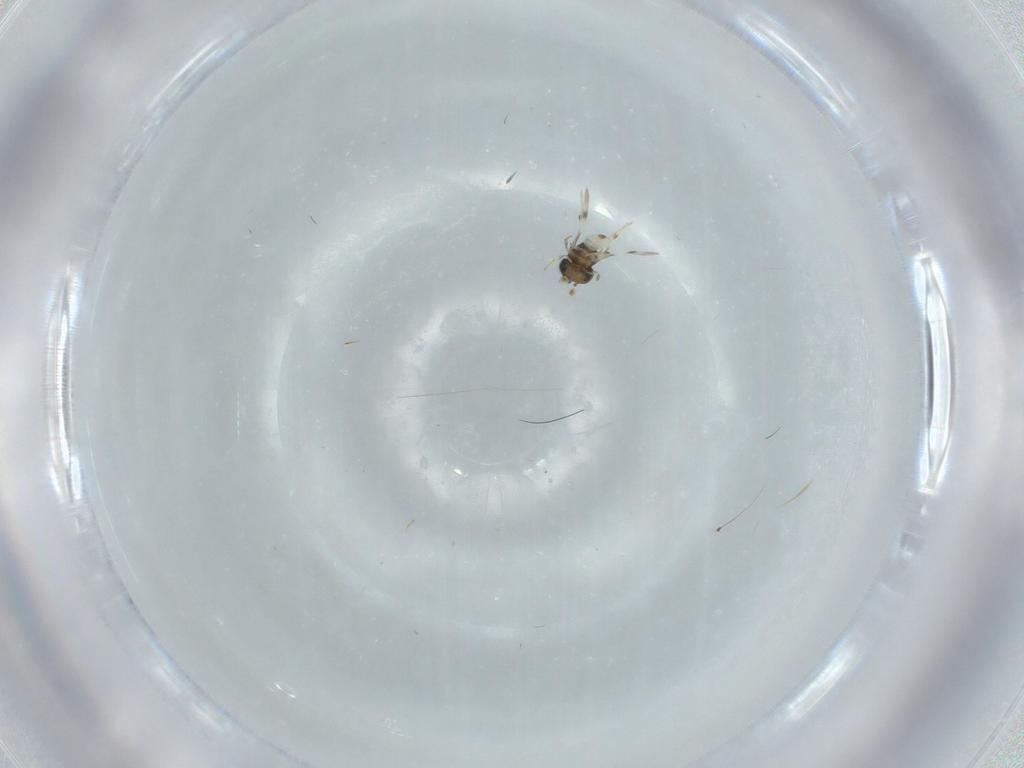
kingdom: Animalia
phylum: Arthropoda
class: Insecta
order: Hymenoptera
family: Scelionidae
